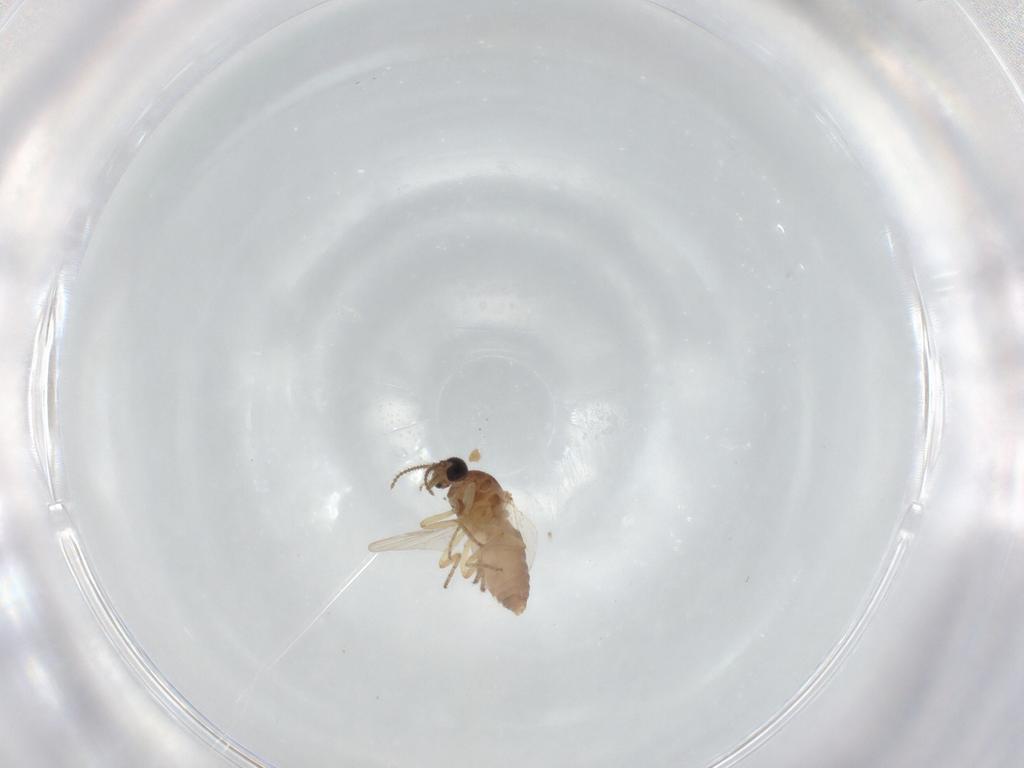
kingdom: Animalia
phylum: Arthropoda
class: Insecta
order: Diptera
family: Ceratopogonidae
